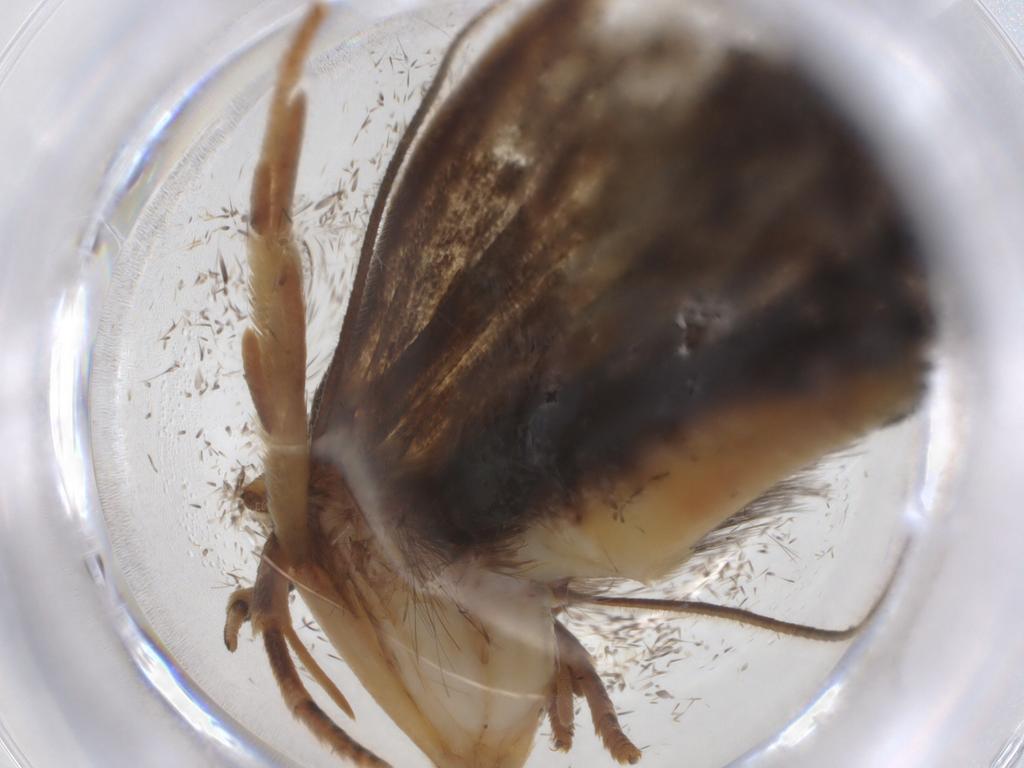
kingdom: Animalia
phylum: Arthropoda
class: Insecta
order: Lepidoptera
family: Depressariidae
